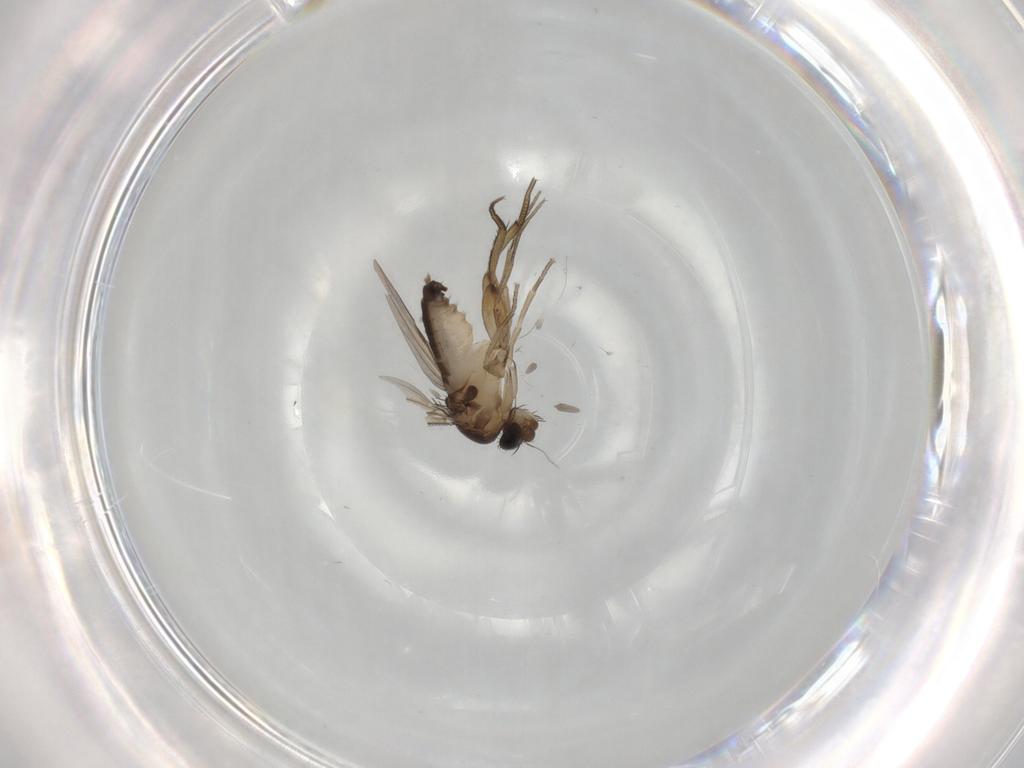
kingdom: Animalia
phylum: Arthropoda
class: Insecta
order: Diptera
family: Phoridae
